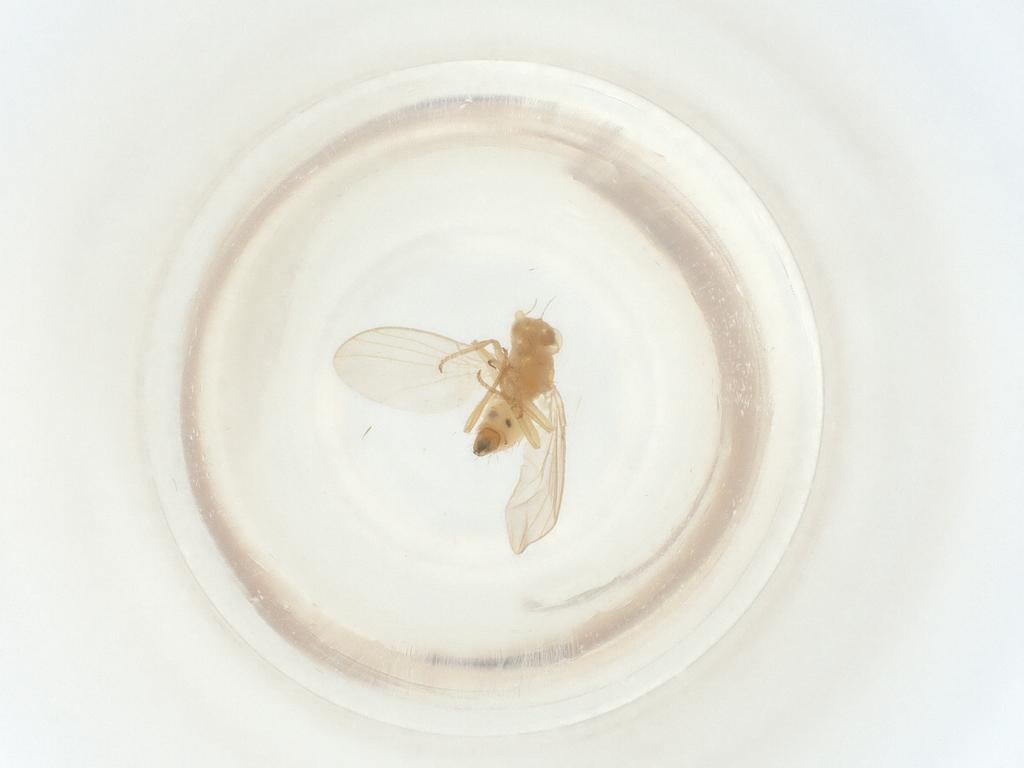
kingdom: Animalia
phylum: Arthropoda
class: Insecta
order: Diptera
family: Agromyzidae
